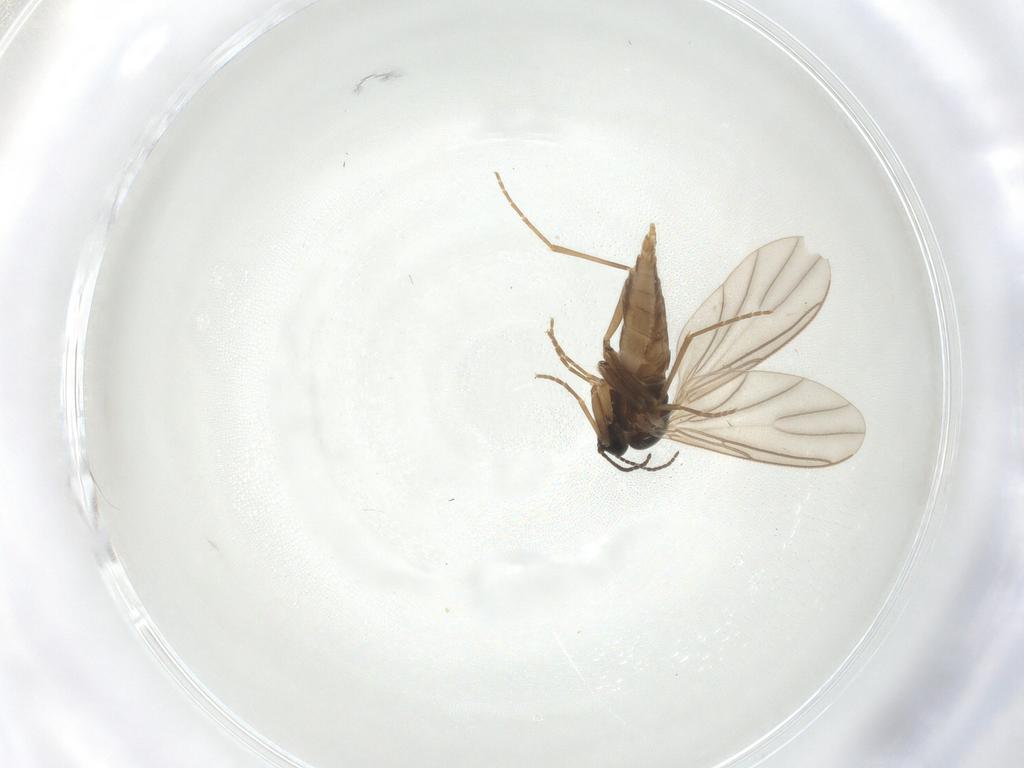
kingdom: Animalia
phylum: Arthropoda
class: Insecta
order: Diptera
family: Sciaridae
